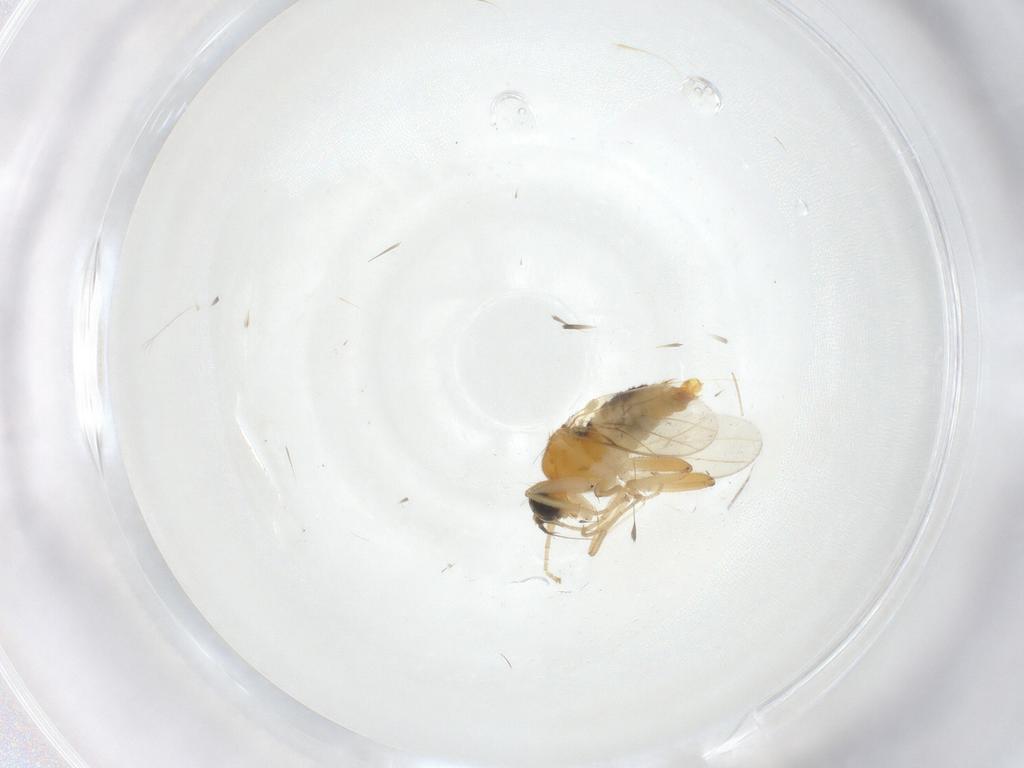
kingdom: Animalia
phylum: Arthropoda
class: Insecta
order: Diptera
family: Hybotidae
